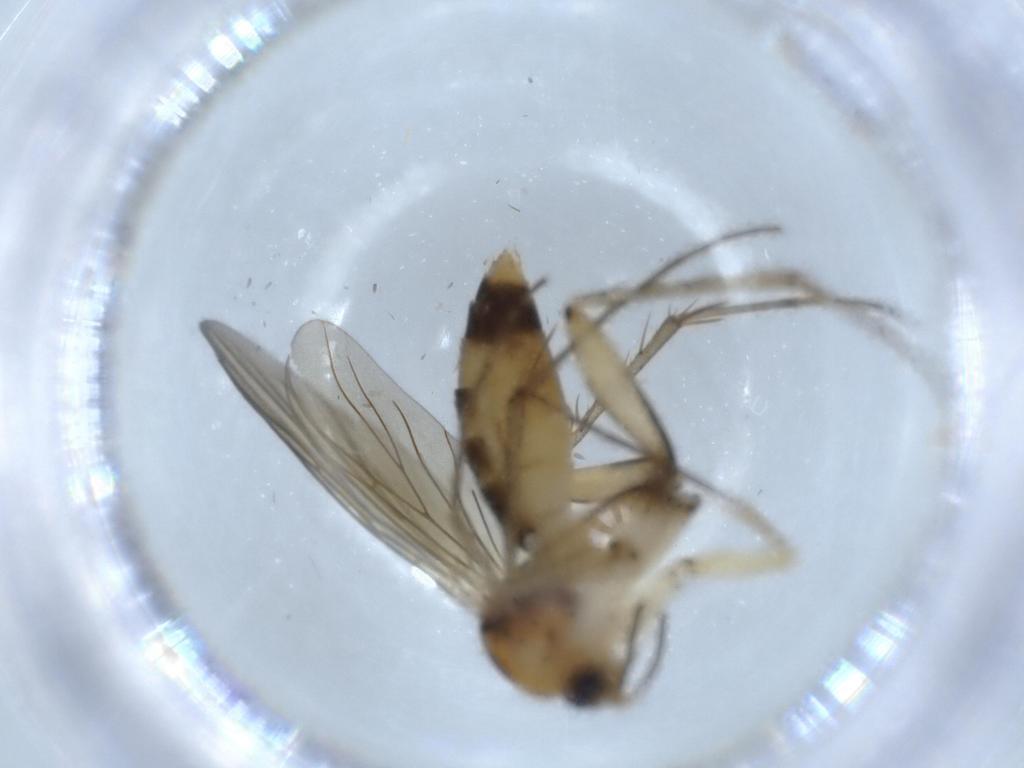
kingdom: Animalia
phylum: Arthropoda
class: Insecta
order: Diptera
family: Mycetophilidae
